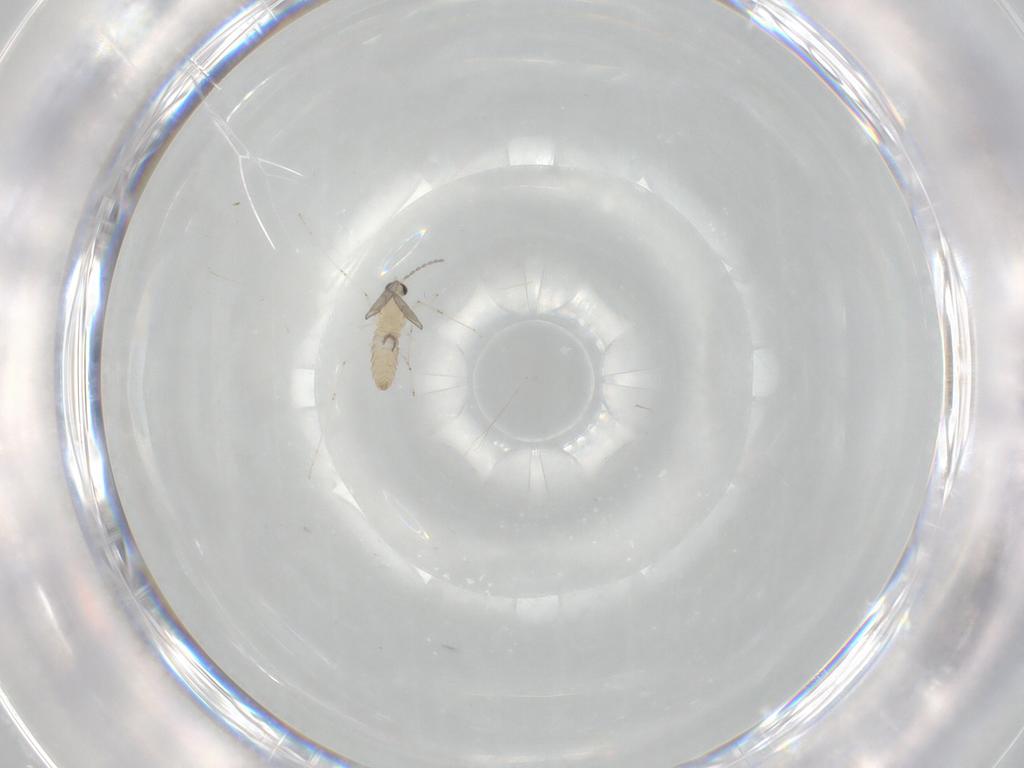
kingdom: Animalia
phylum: Arthropoda
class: Insecta
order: Diptera
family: Cecidomyiidae
